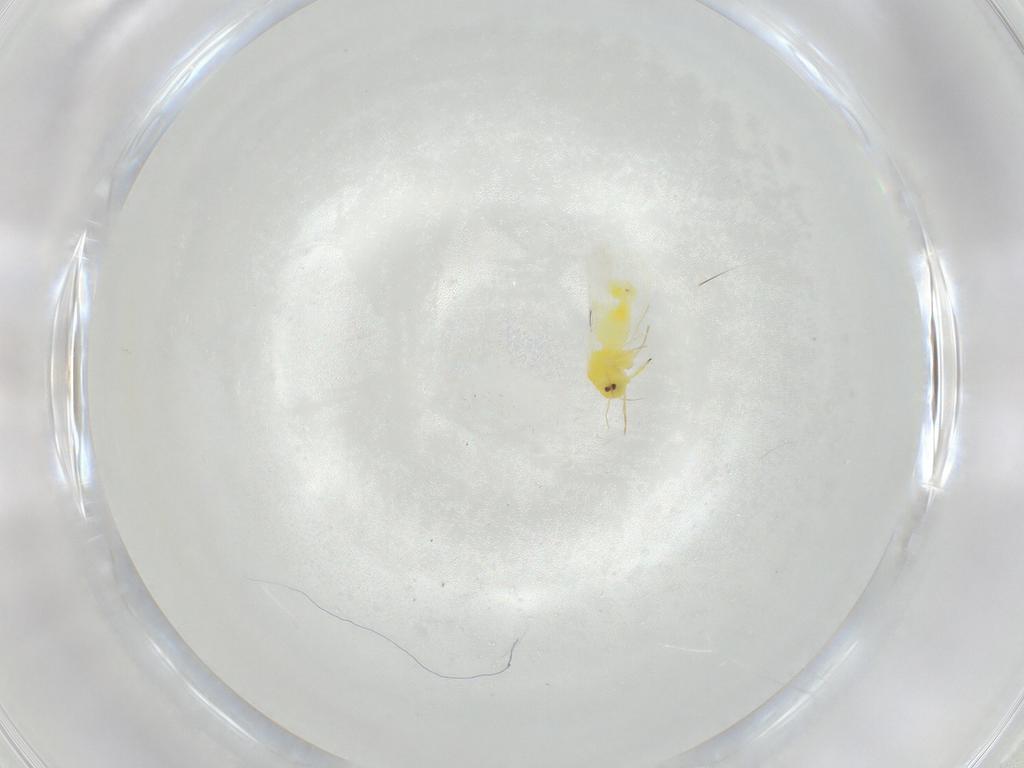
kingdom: Animalia
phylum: Arthropoda
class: Insecta
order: Hemiptera
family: Aleyrodidae
